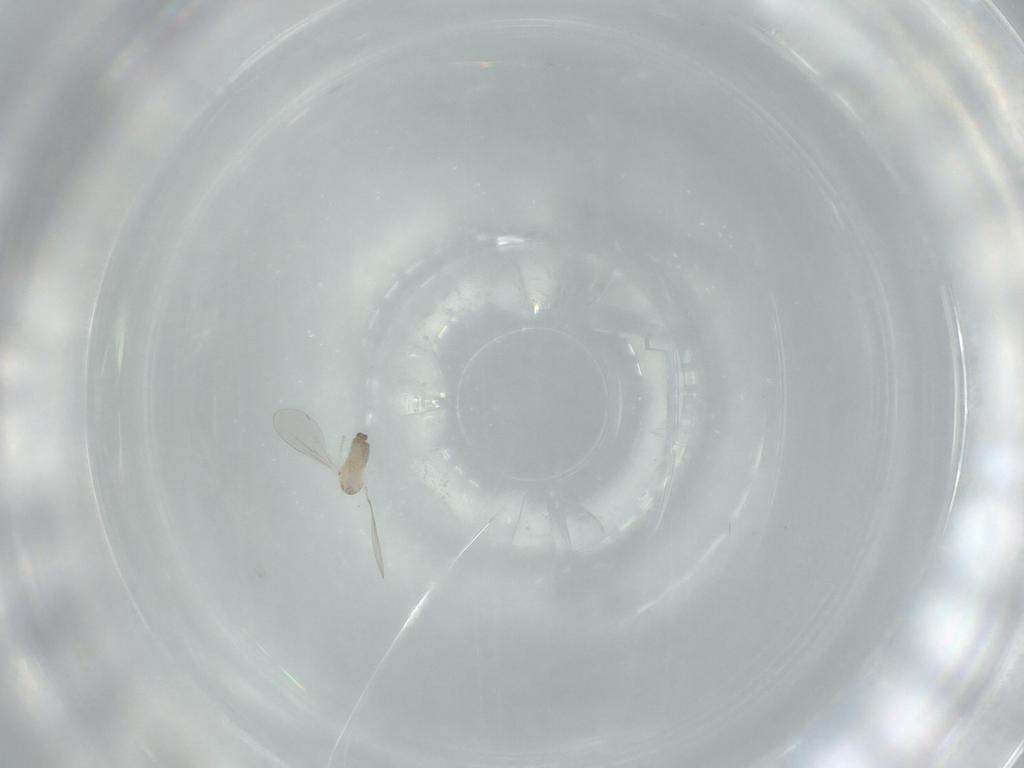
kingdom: Animalia
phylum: Arthropoda
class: Insecta
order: Diptera
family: Cecidomyiidae
